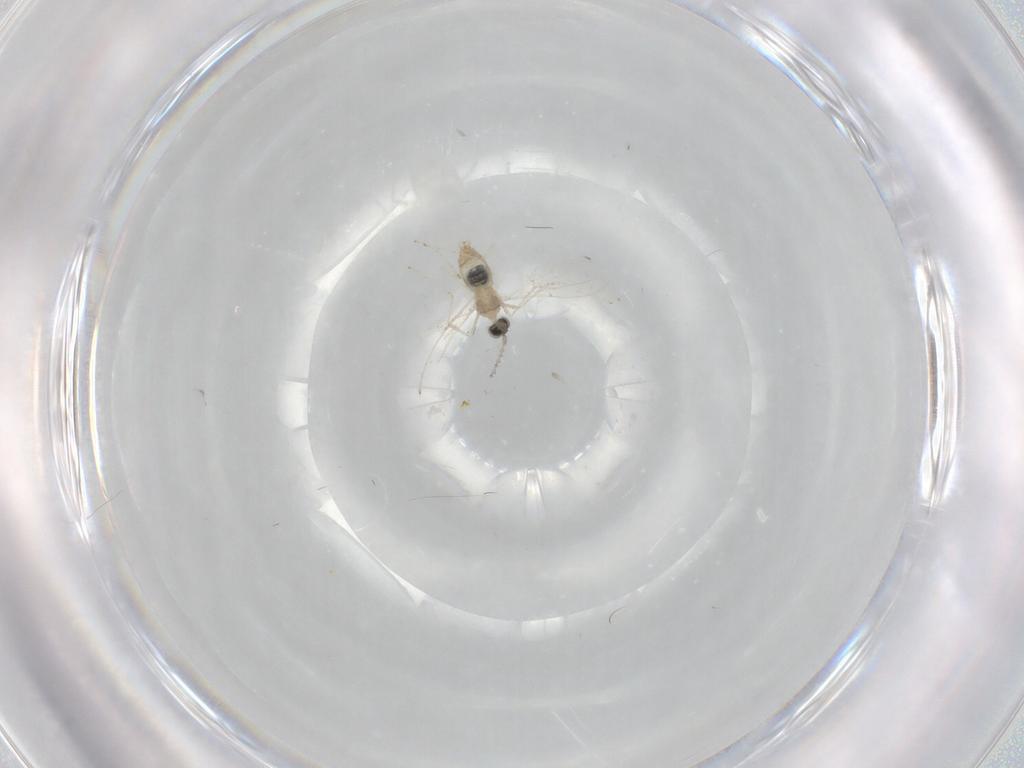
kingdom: Animalia
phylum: Arthropoda
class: Insecta
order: Diptera
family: Cecidomyiidae
